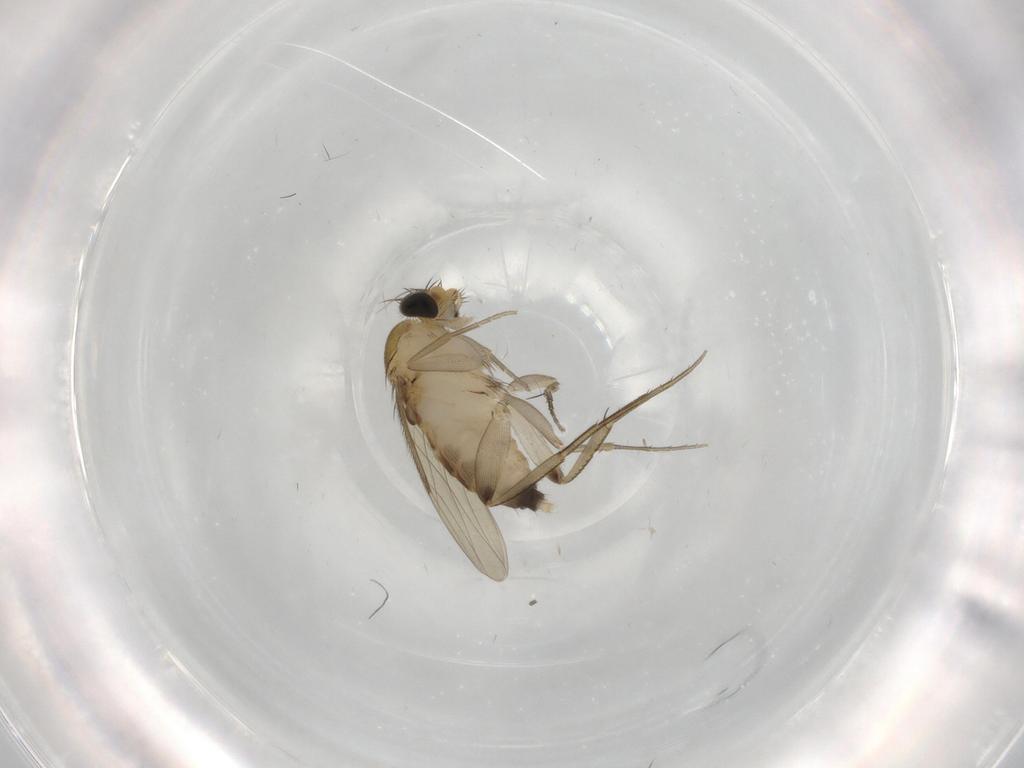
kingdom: Animalia
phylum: Arthropoda
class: Insecta
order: Diptera
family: Phoridae
